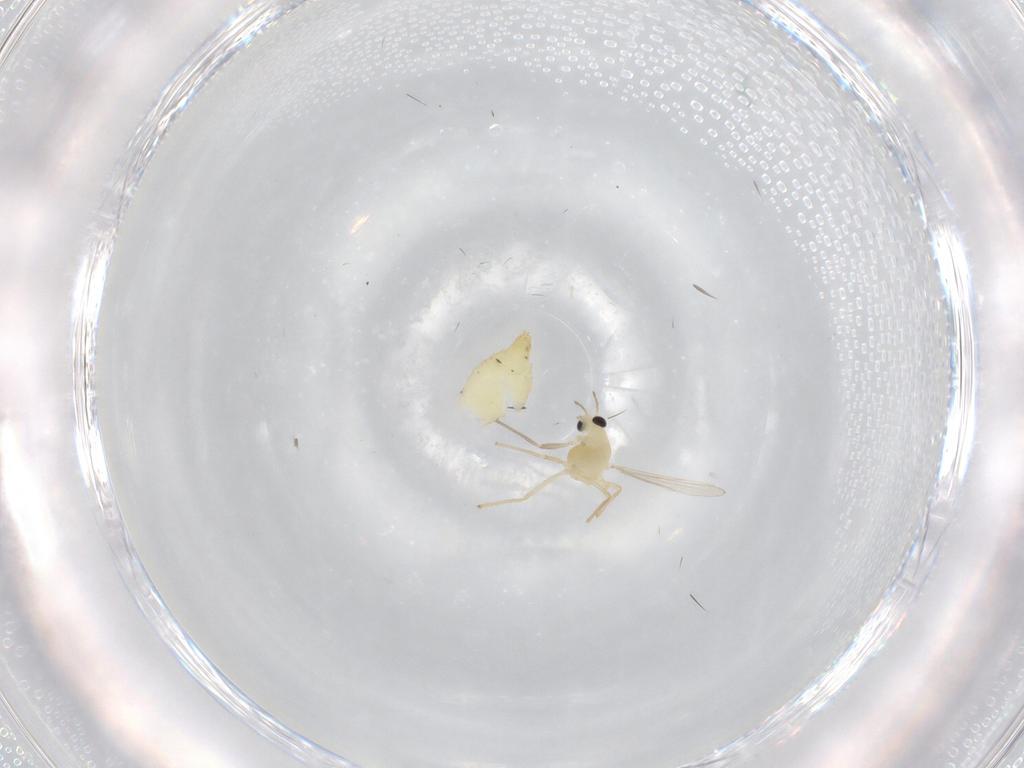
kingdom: Animalia
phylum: Arthropoda
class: Insecta
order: Diptera
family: Chironomidae
